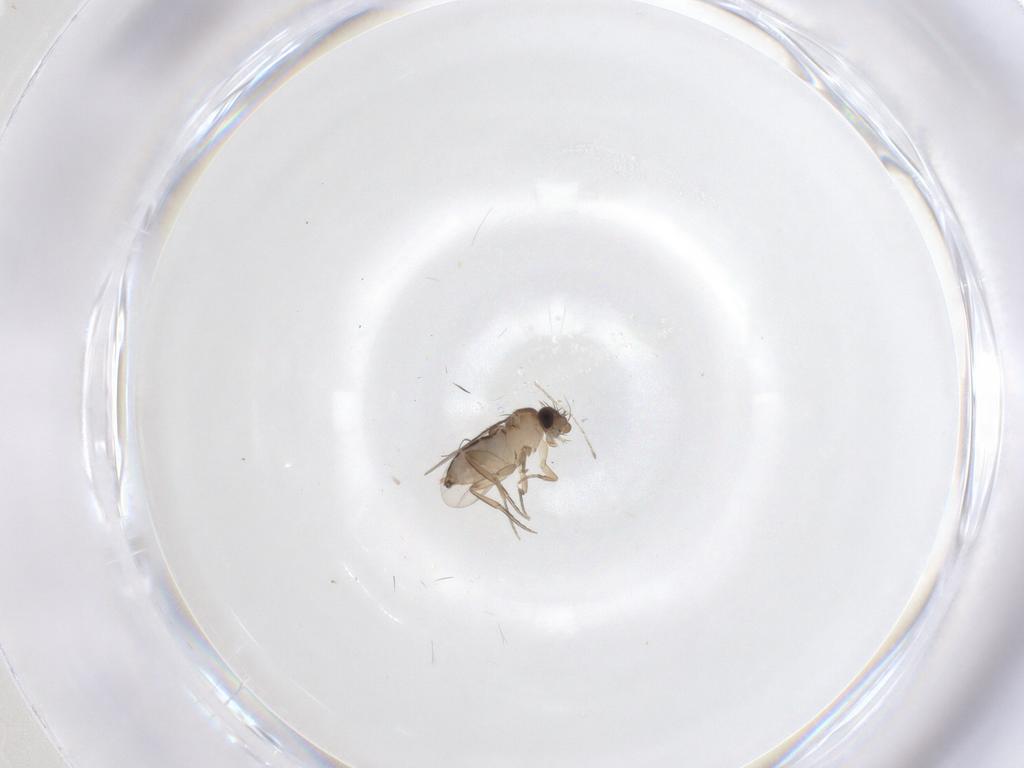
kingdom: Animalia
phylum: Arthropoda
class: Insecta
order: Diptera
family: Phoridae
